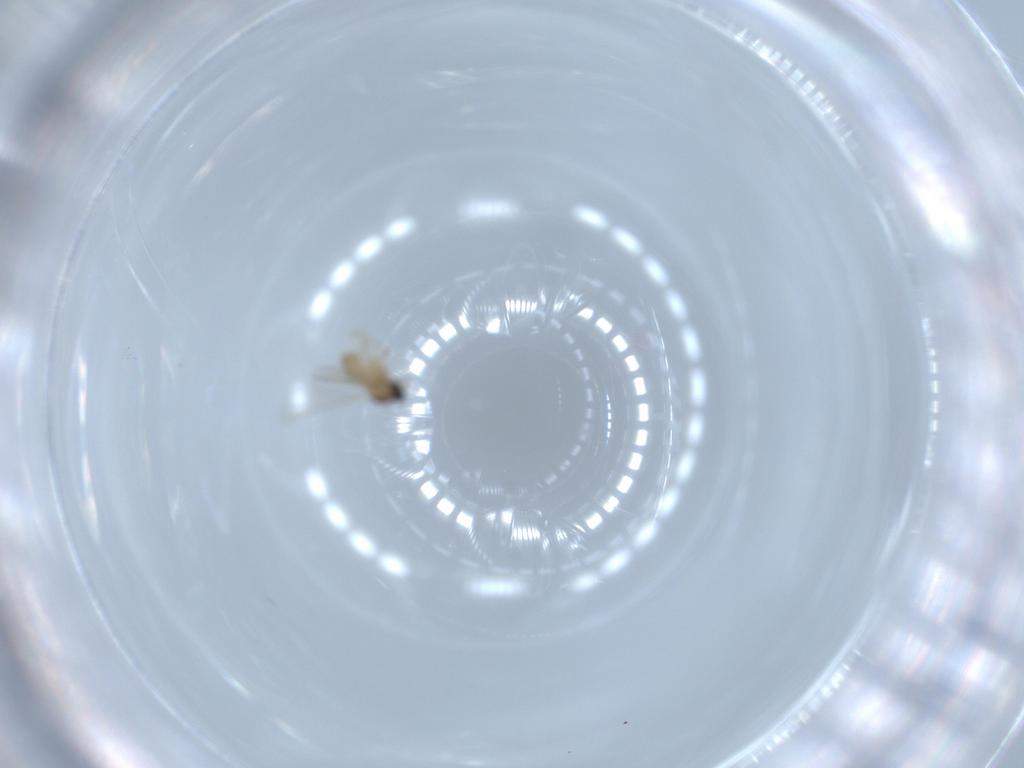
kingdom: Animalia
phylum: Arthropoda
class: Insecta
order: Diptera
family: Cecidomyiidae
